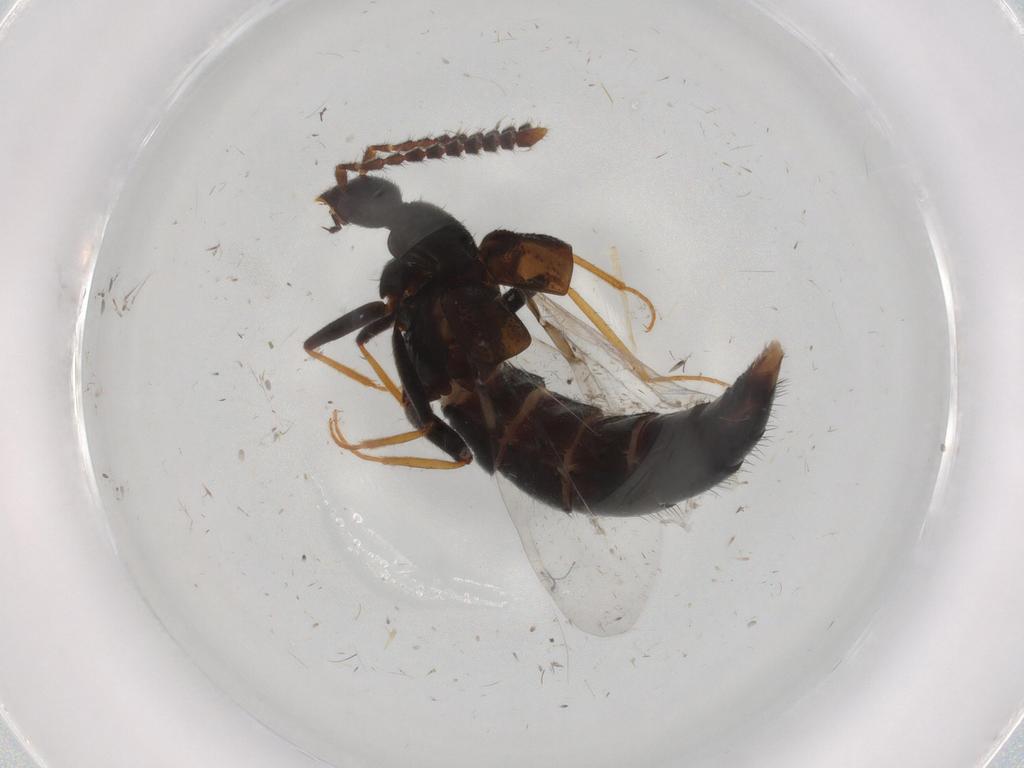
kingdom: Animalia
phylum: Arthropoda
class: Insecta
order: Coleoptera
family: Staphylinidae
